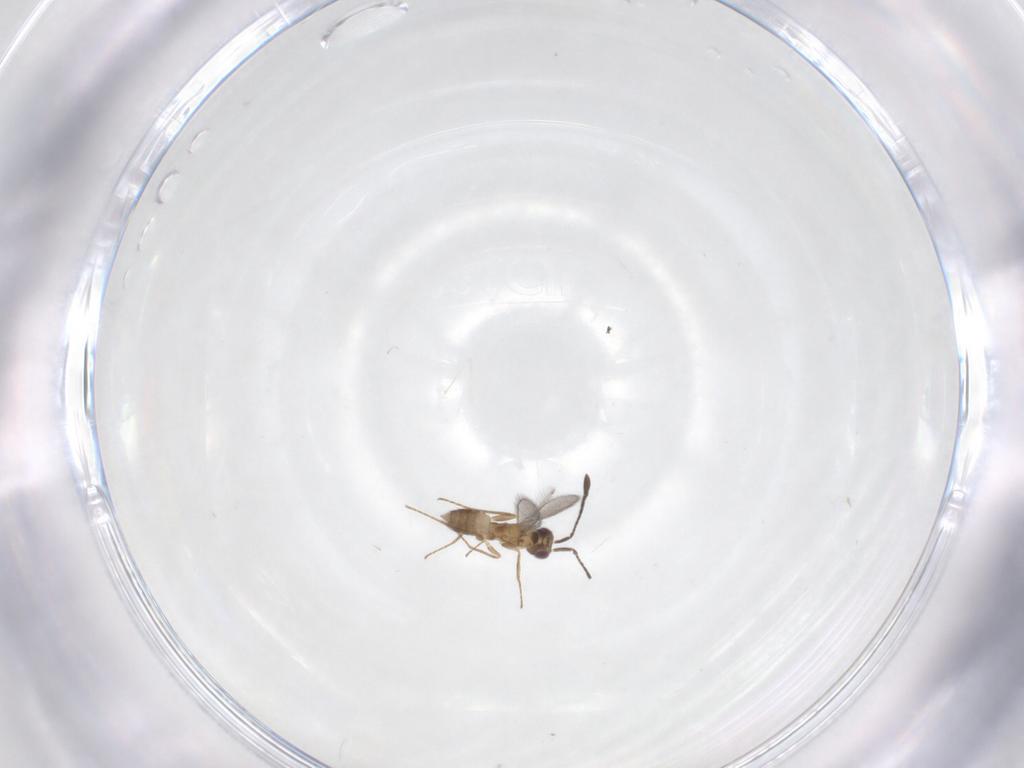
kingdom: Animalia
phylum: Arthropoda
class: Insecta
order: Hymenoptera
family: Mymaridae
